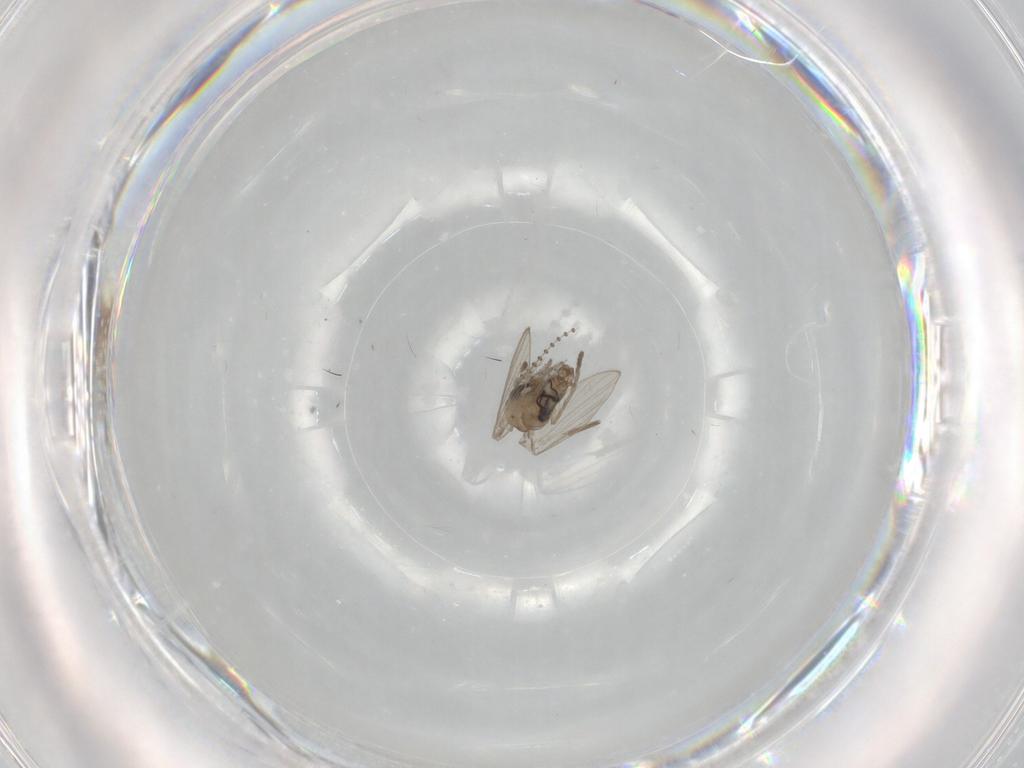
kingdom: Animalia
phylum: Arthropoda
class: Insecta
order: Diptera
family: Psychodidae
